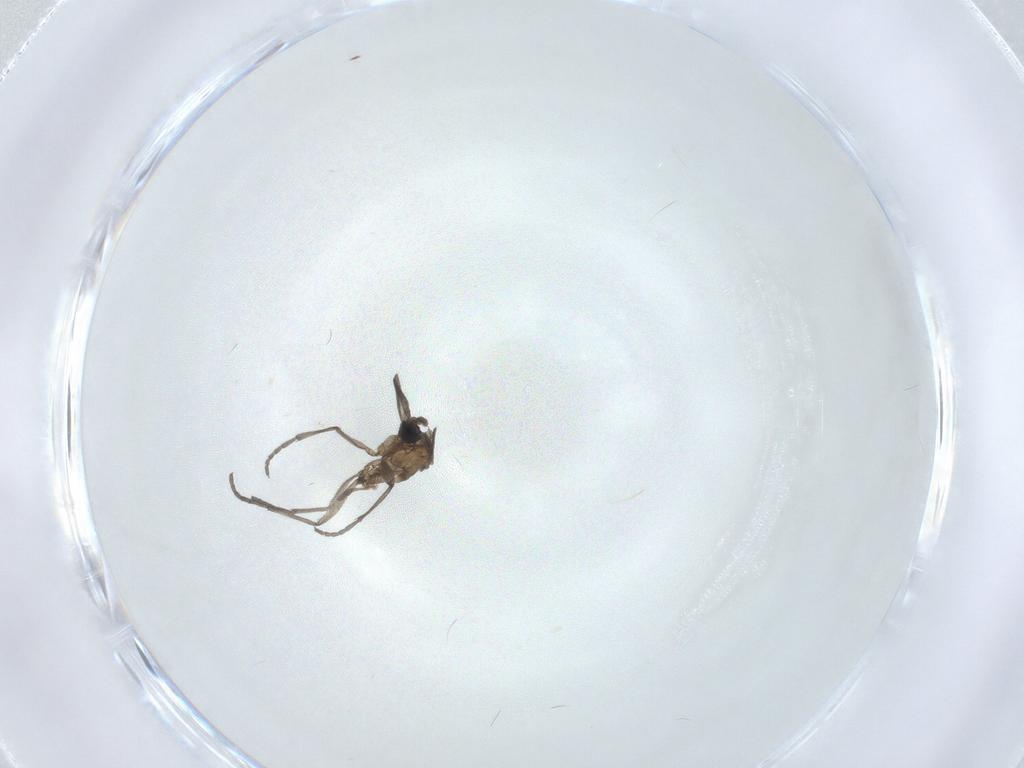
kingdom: Animalia
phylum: Arthropoda
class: Insecta
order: Diptera
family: Sciaridae
